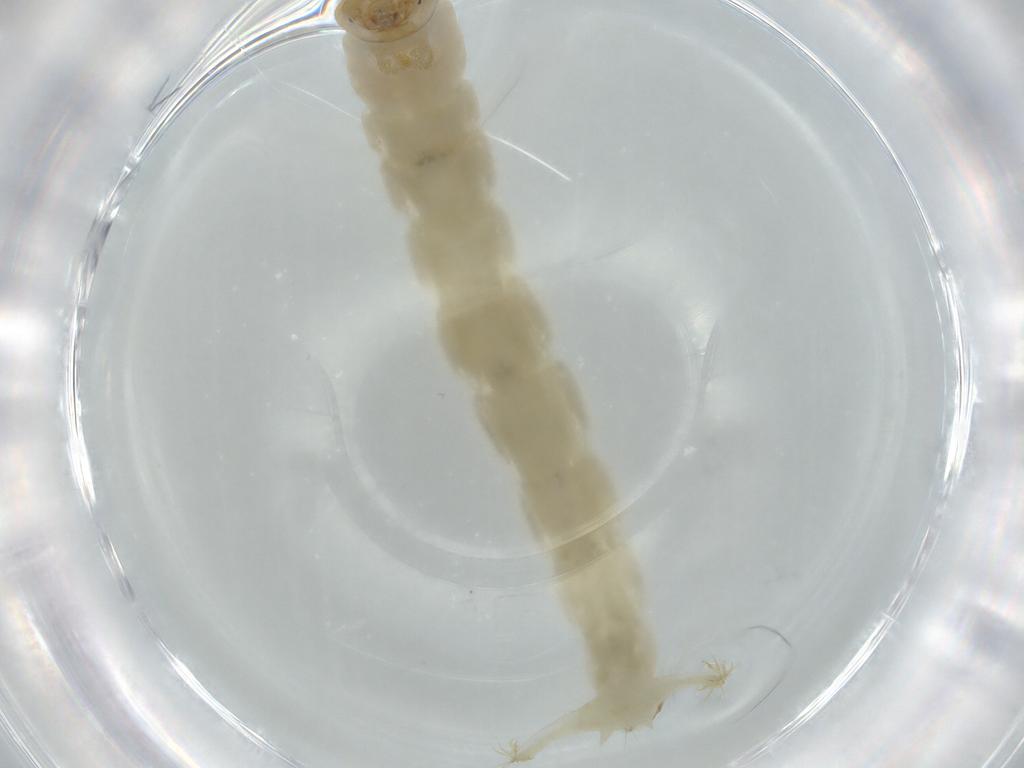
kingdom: Animalia
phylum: Arthropoda
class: Insecta
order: Diptera
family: Chironomidae
